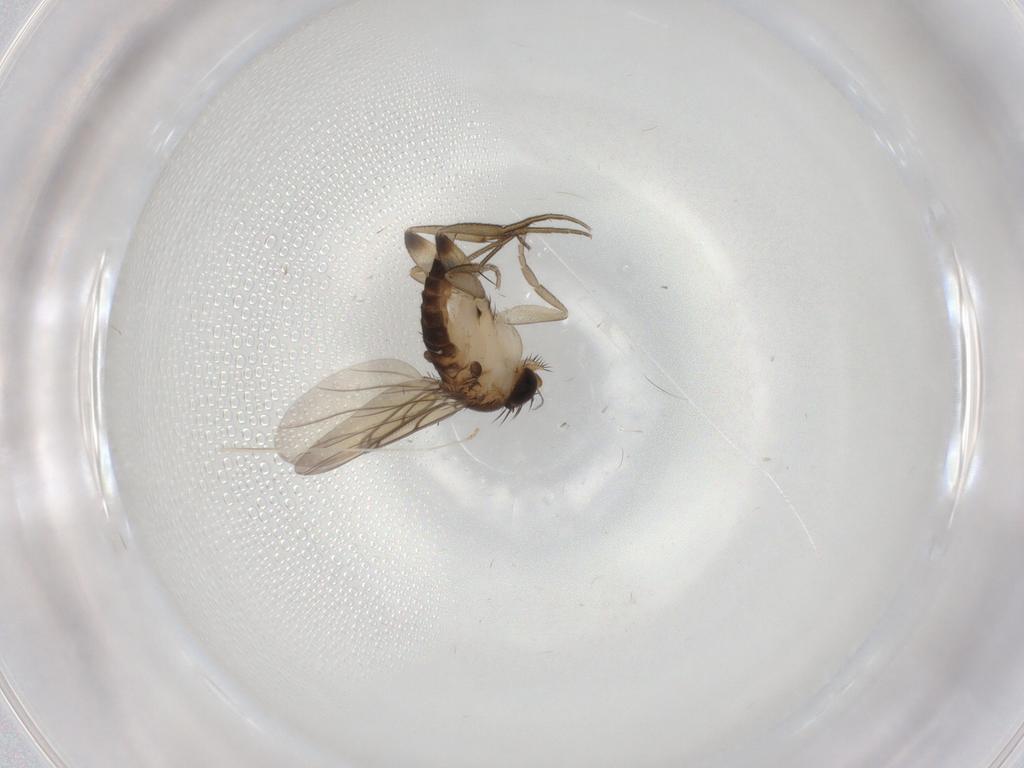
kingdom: Animalia
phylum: Arthropoda
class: Insecta
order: Diptera
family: Phoridae
